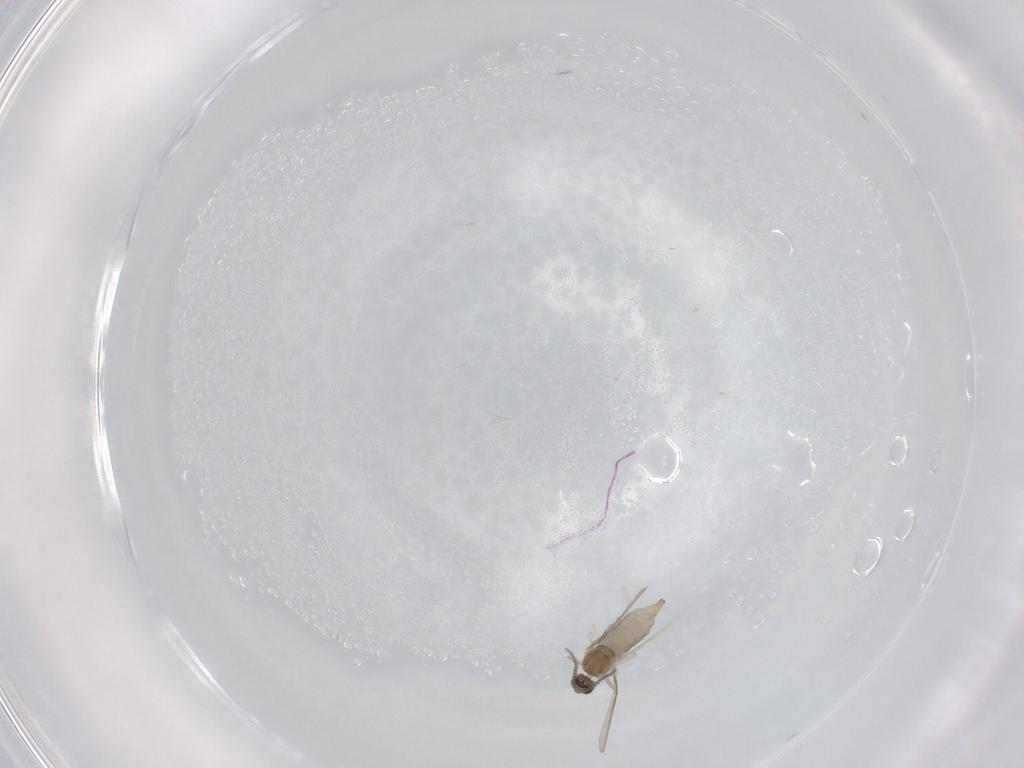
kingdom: Animalia
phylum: Arthropoda
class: Insecta
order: Diptera
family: Cecidomyiidae
